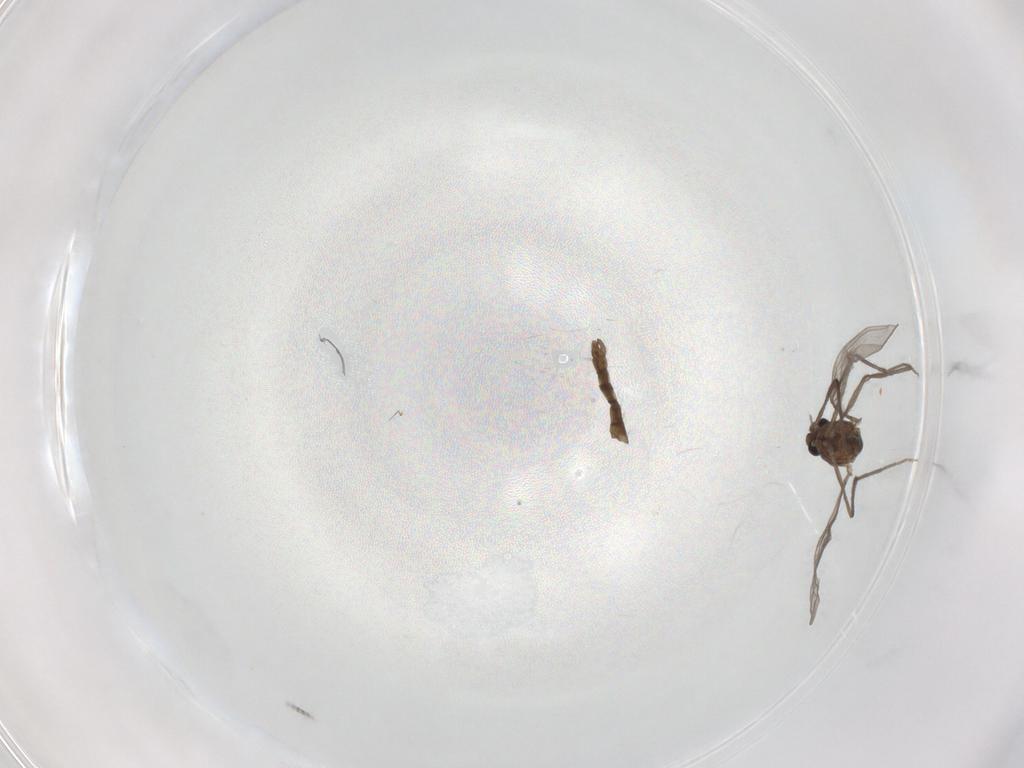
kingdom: Animalia
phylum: Arthropoda
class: Insecta
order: Diptera
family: Chironomidae
